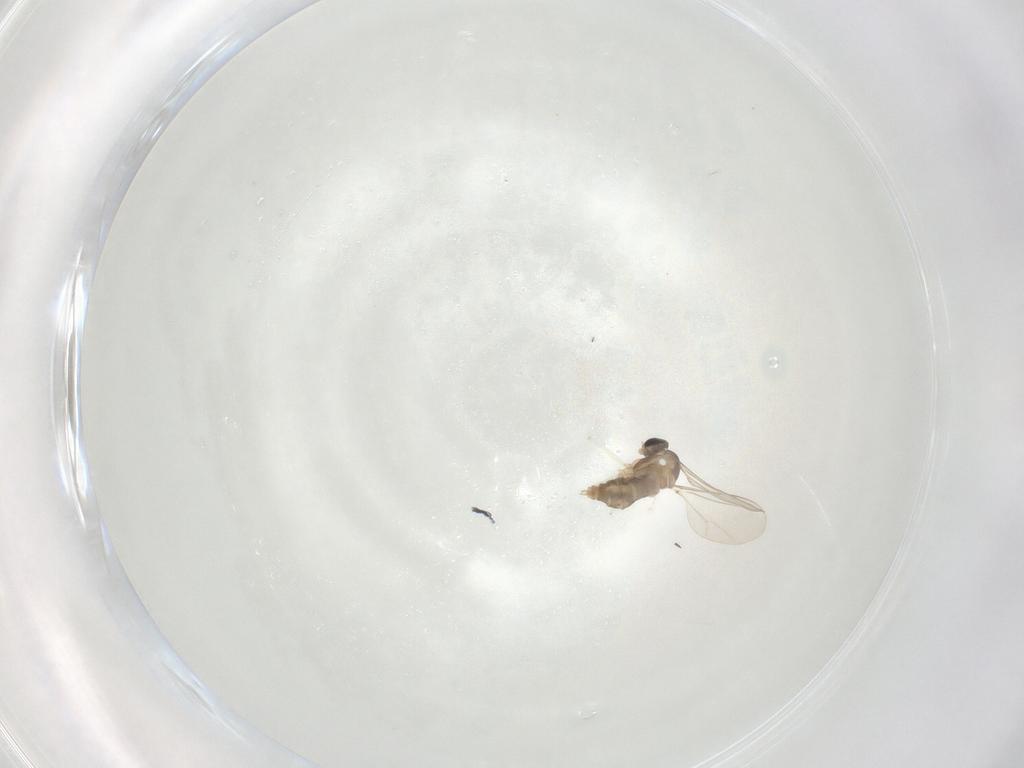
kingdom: Animalia
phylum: Arthropoda
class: Insecta
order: Diptera
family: Cecidomyiidae
